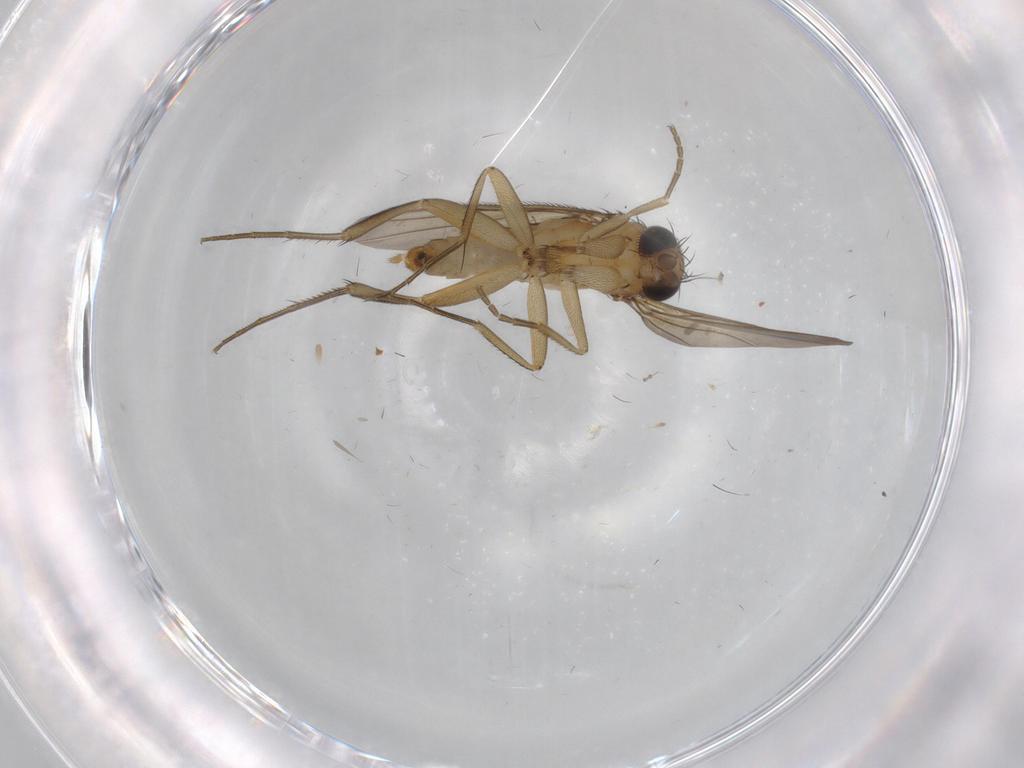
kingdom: Animalia
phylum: Arthropoda
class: Insecta
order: Diptera
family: Phoridae
